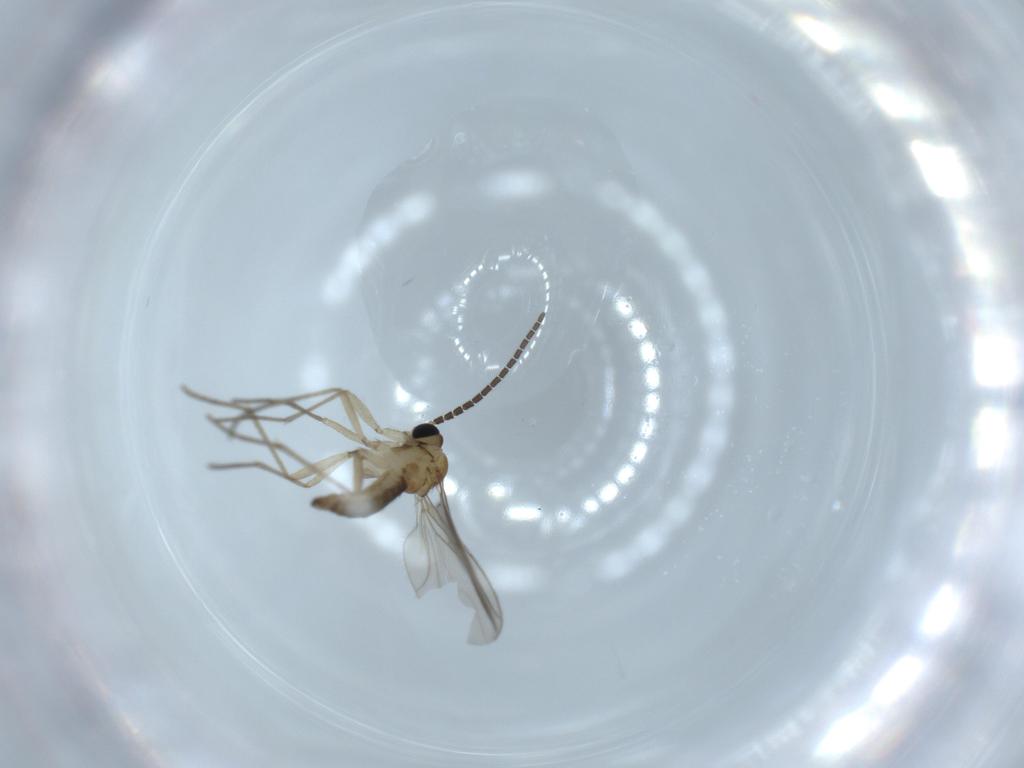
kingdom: Animalia
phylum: Arthropoda
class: Insecta
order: Diptera
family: Sciaridae
